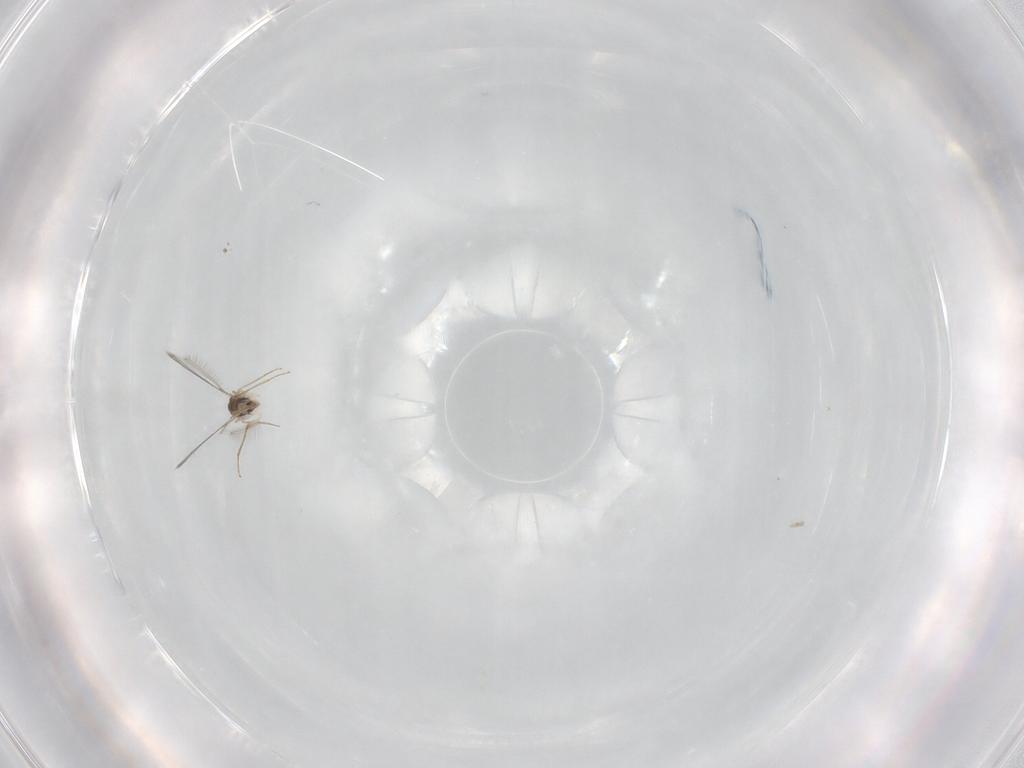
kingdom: Animalia
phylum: Arthropoda
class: Insecta
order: Hymenoptera
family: Mymaridae
